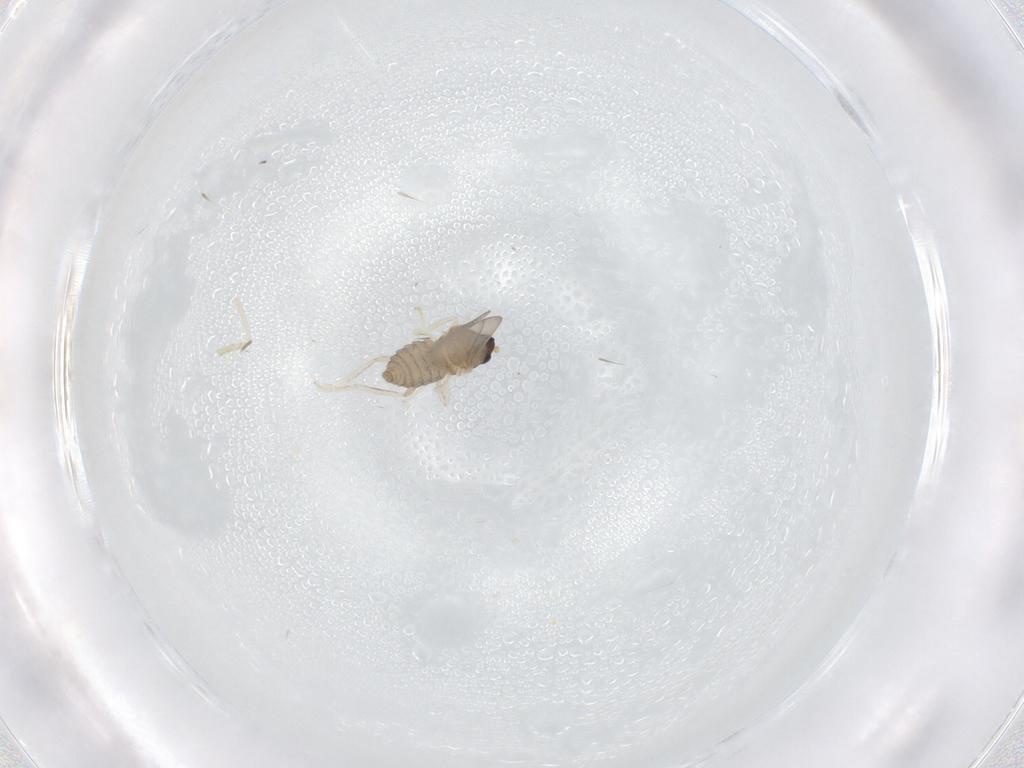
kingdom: Animalia
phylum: Arthropoda
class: Insecta
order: Diptera
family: Cecidomyiidae
